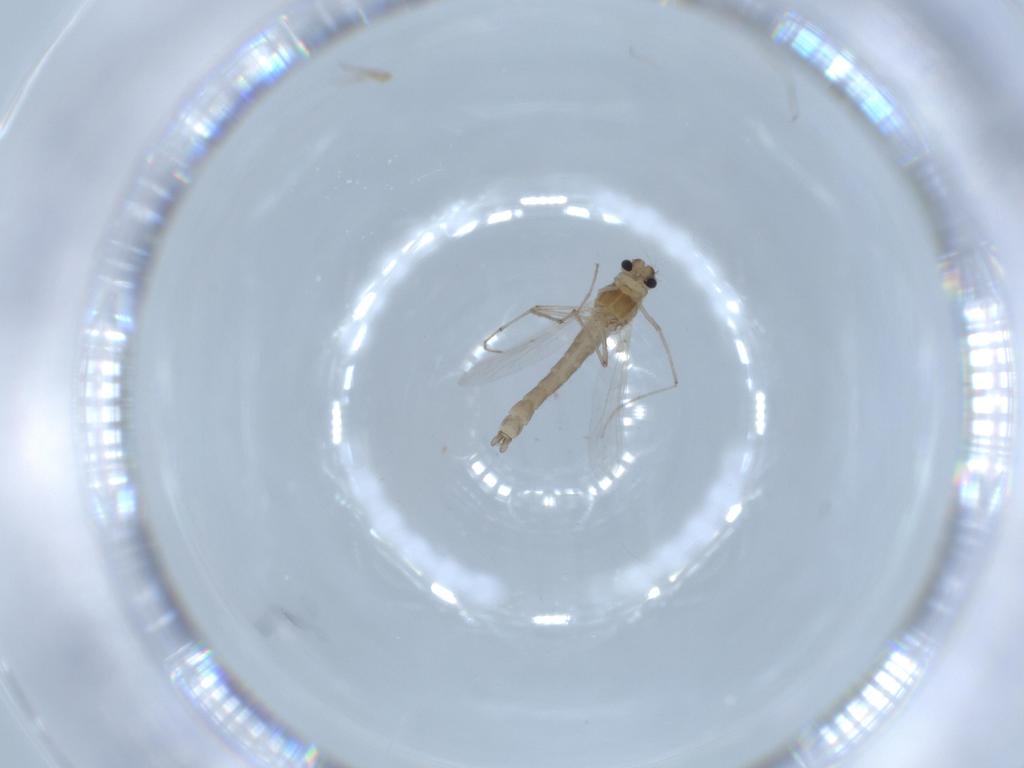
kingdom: Animalia
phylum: Arthropoda
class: Insecta
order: Diptera
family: Chironomidae
